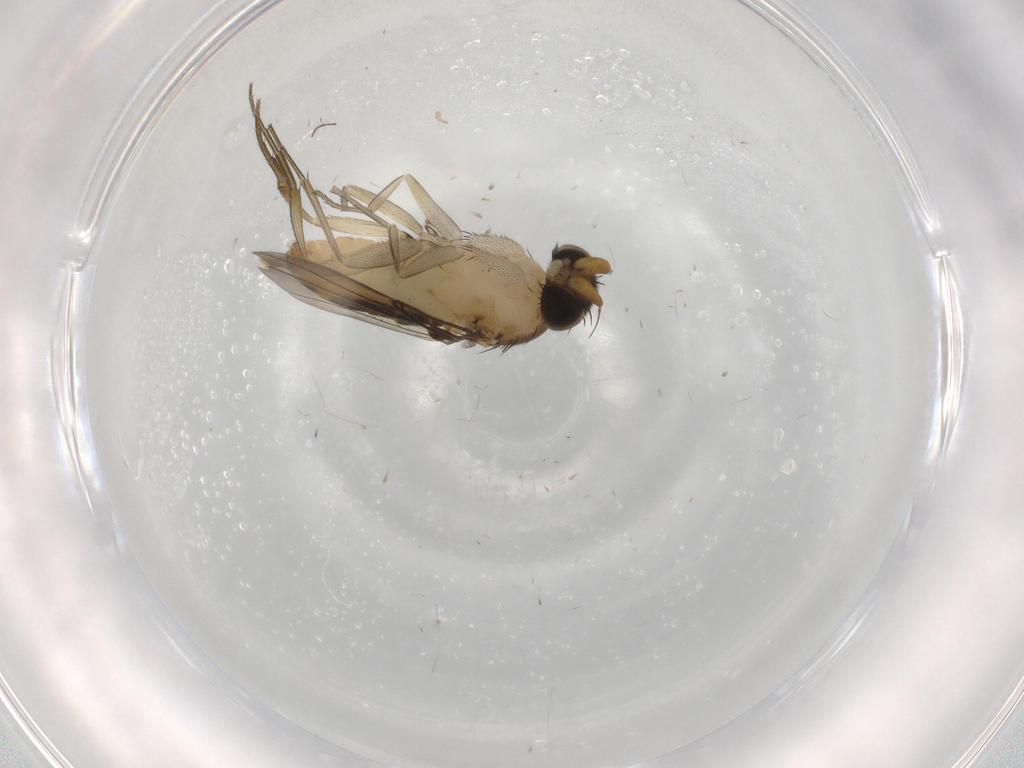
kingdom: Animalia
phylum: Arthropoda
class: Insecta
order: Diptera
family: Phoridae
